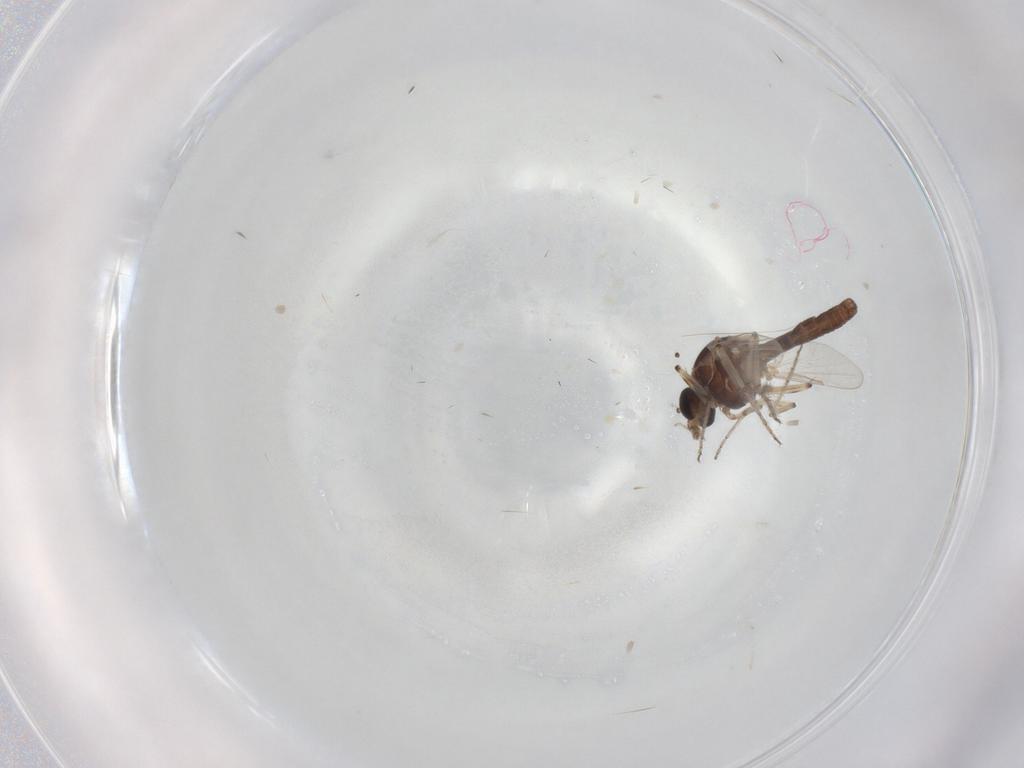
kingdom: Animalia
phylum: Arthropoda
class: Insecta
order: Diptera
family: Ceratopogonidae
